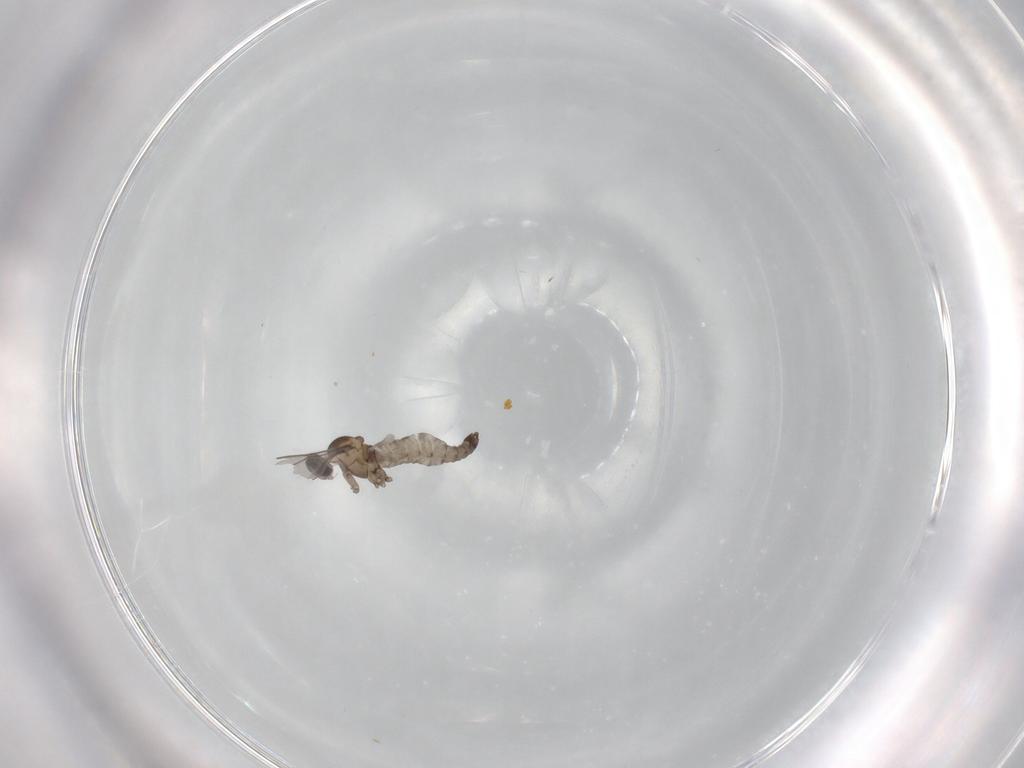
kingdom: Animalia
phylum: Arthropoda
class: Insecta
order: Diptera
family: Cecidomyiidae
